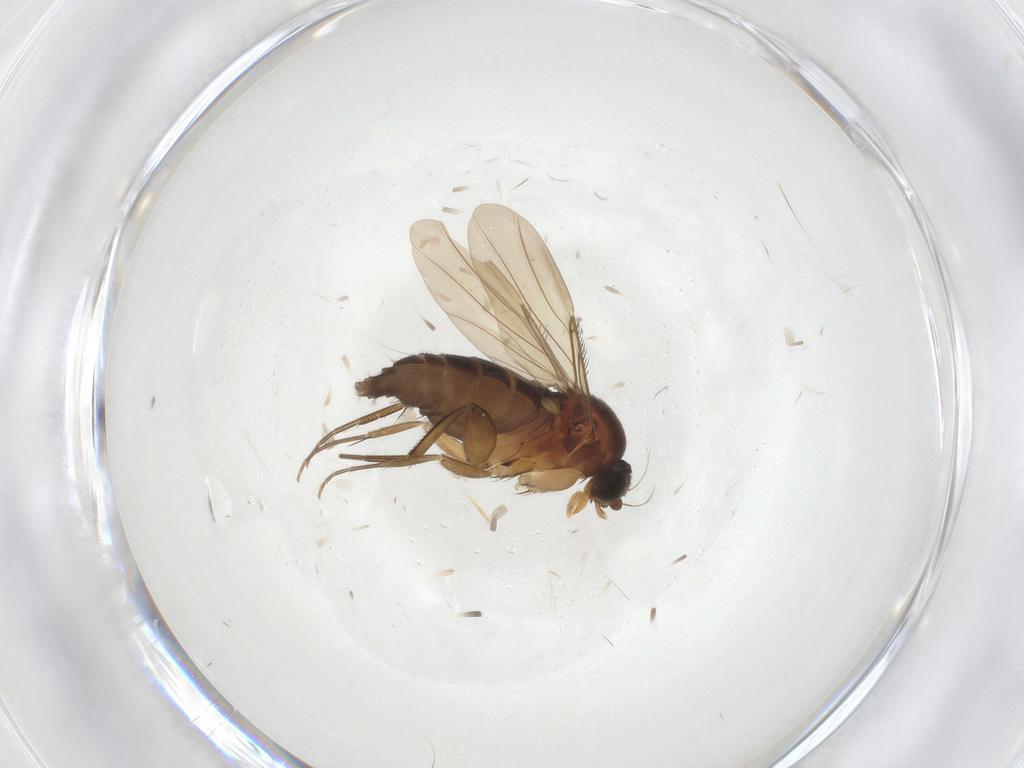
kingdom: Animalia
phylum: Arthropoda
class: Insecta
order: Diptera
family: Phoridae
